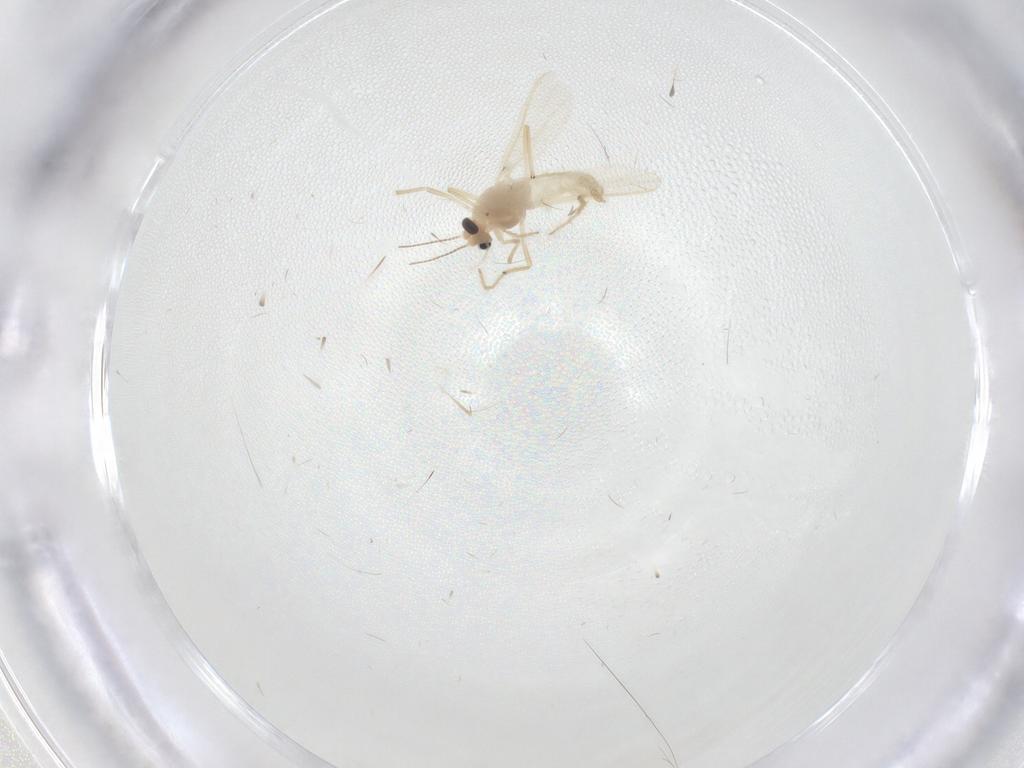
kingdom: Animalia
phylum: Arthropoda
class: Insecta
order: Diptera
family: Chironomidae
